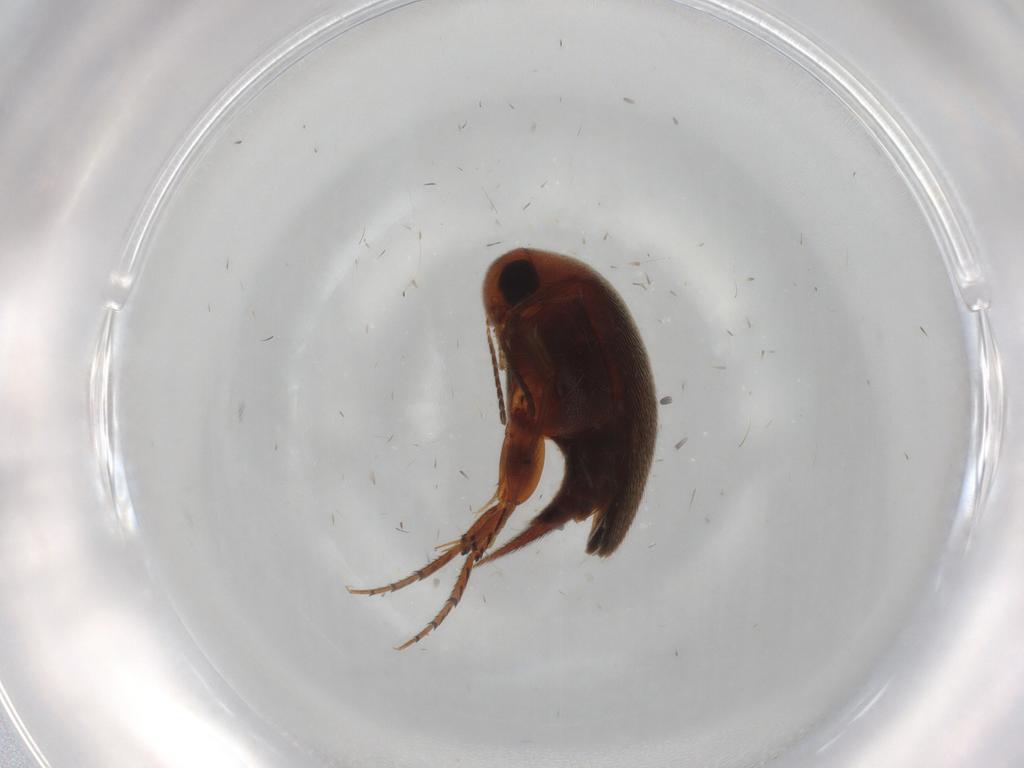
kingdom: Animalia
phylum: Arthropoda
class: Insecta
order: Coleoptera
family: Mordellidae
